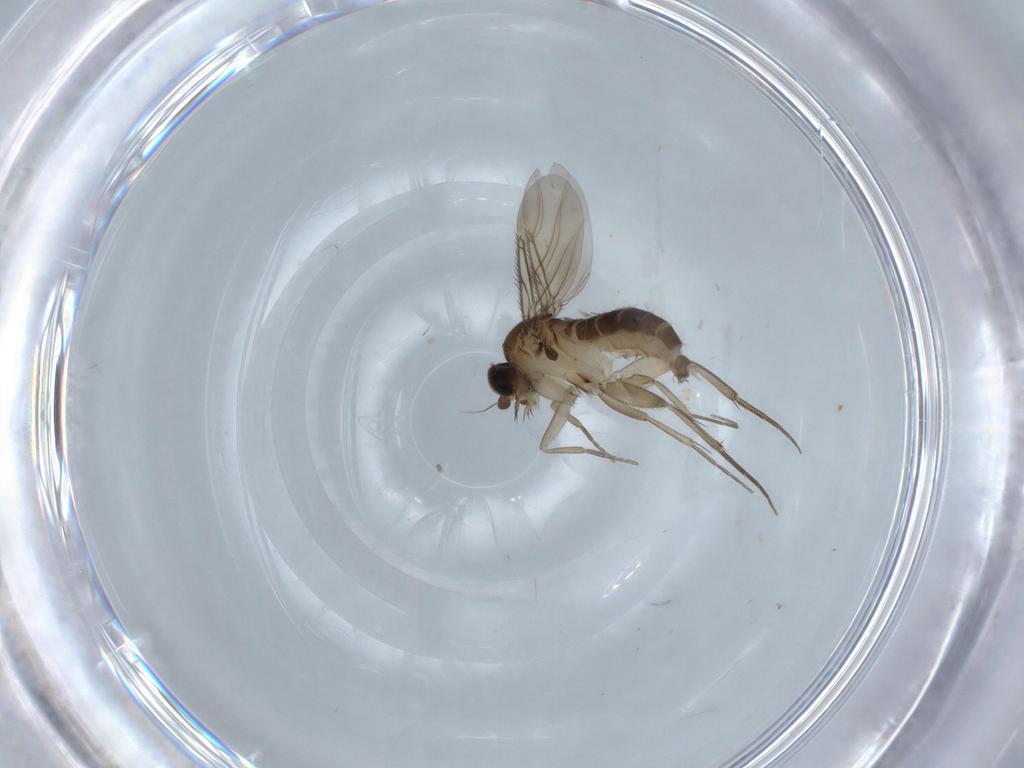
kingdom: Animalia
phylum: Arthropoda
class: Insecta
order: Diptera
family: Phoridae
